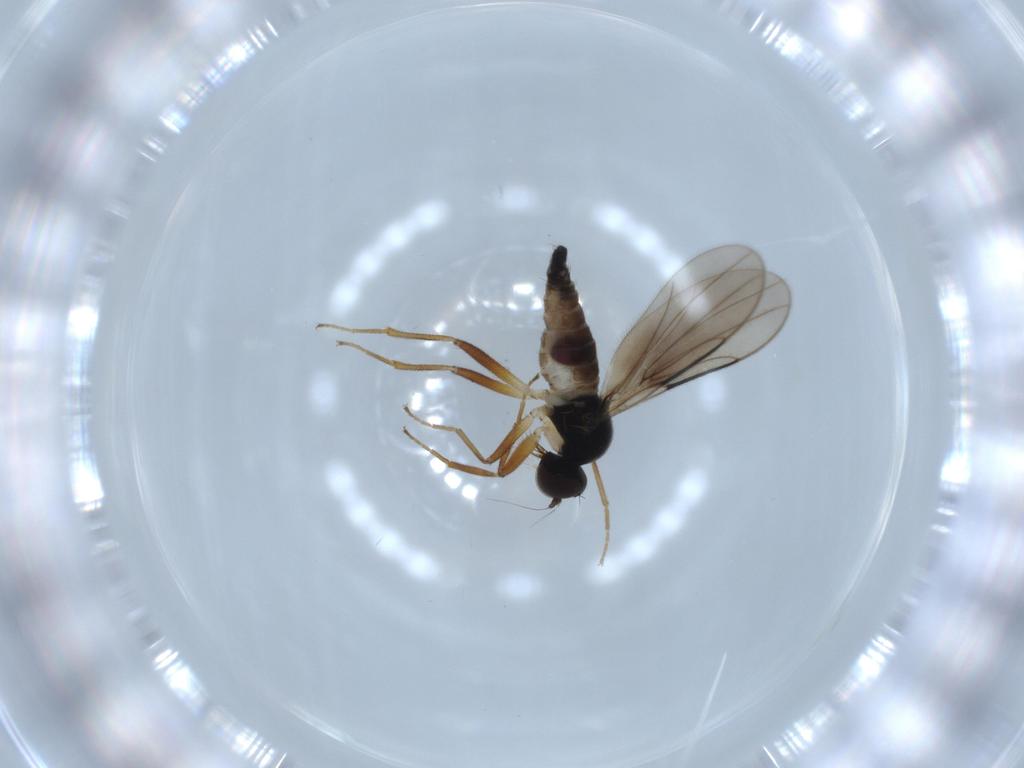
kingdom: Animalia
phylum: Arthropoda
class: Insecta
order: Diptera
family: Hybotidae
